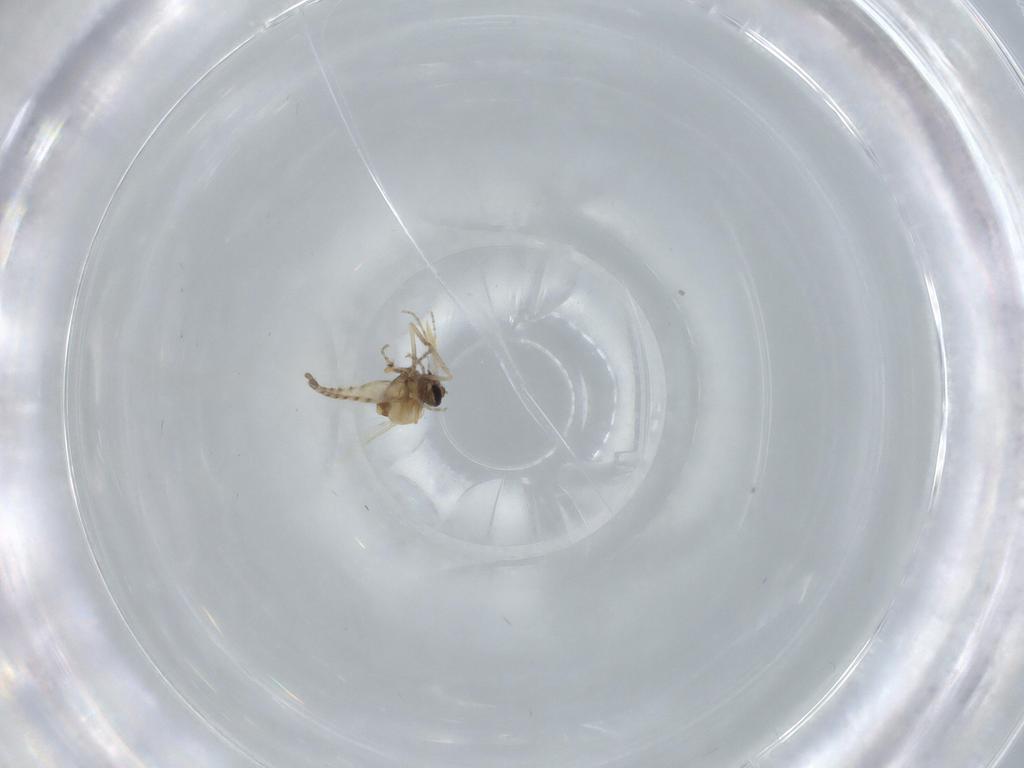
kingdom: Animalia
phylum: Arthropoda
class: Insecta
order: Diptera
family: Ceratopogonidae
